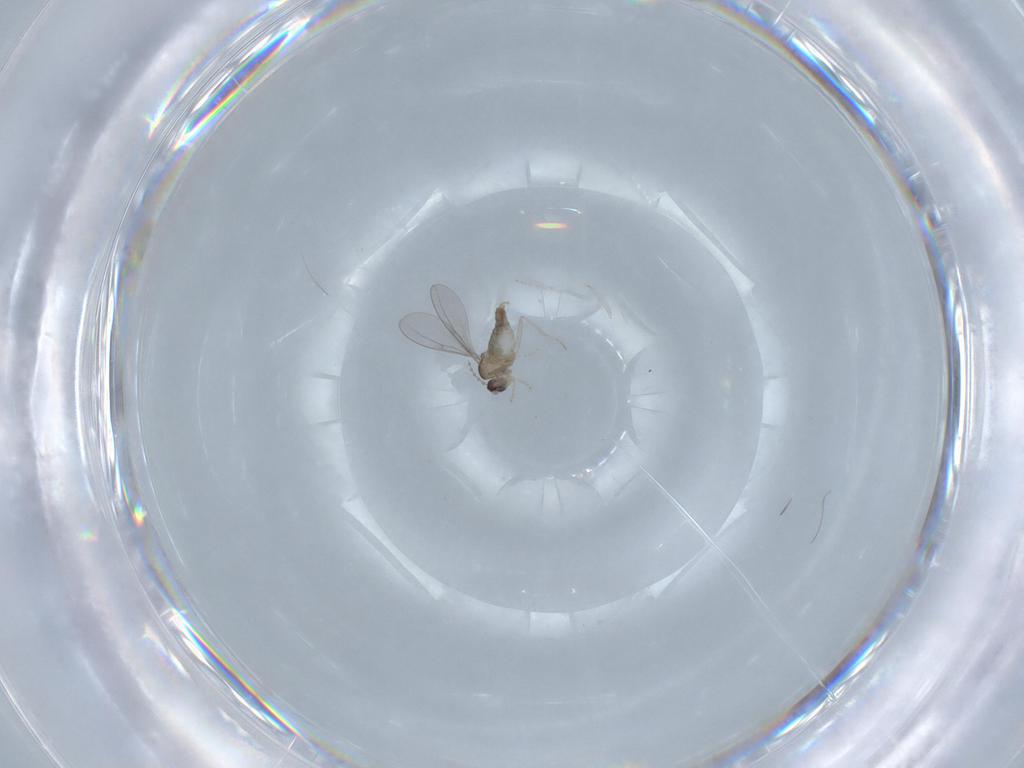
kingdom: Animalia
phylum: Arthropoda
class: Insecta
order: Diptera
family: Cecidomyiidae
